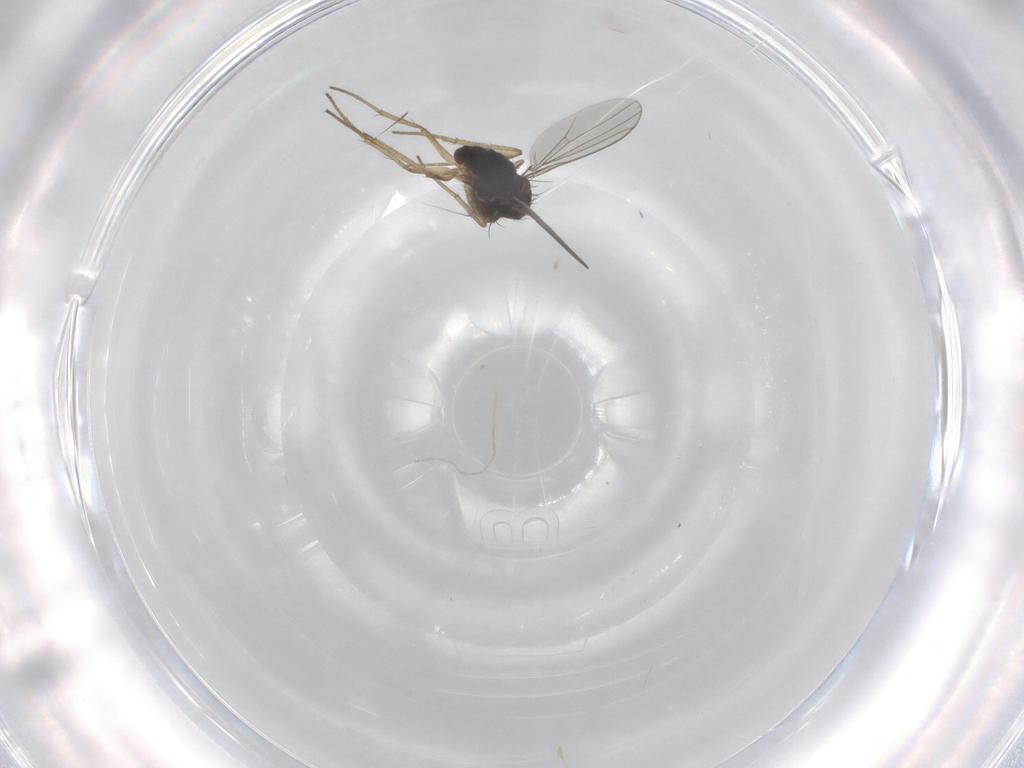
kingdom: Animalia
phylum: Arthropoda
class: Insecta
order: Diptera
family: Dolichopodidae
